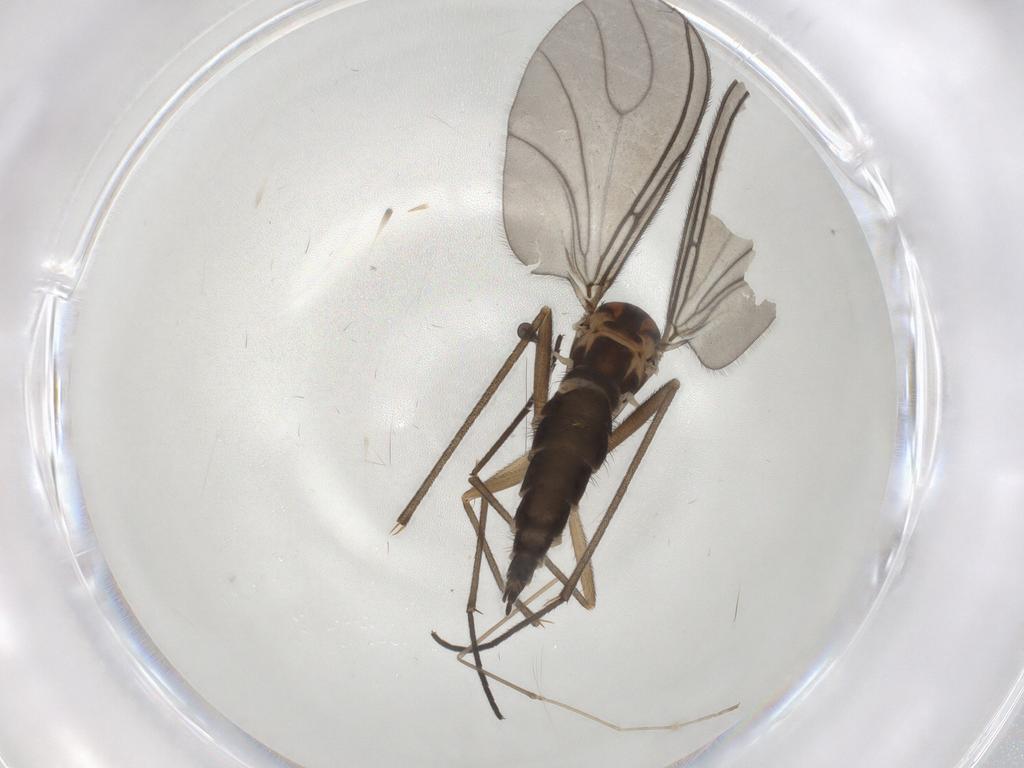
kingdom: Animalia
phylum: Arthropoda
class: Insecta
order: Diptera
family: Sciaridae
